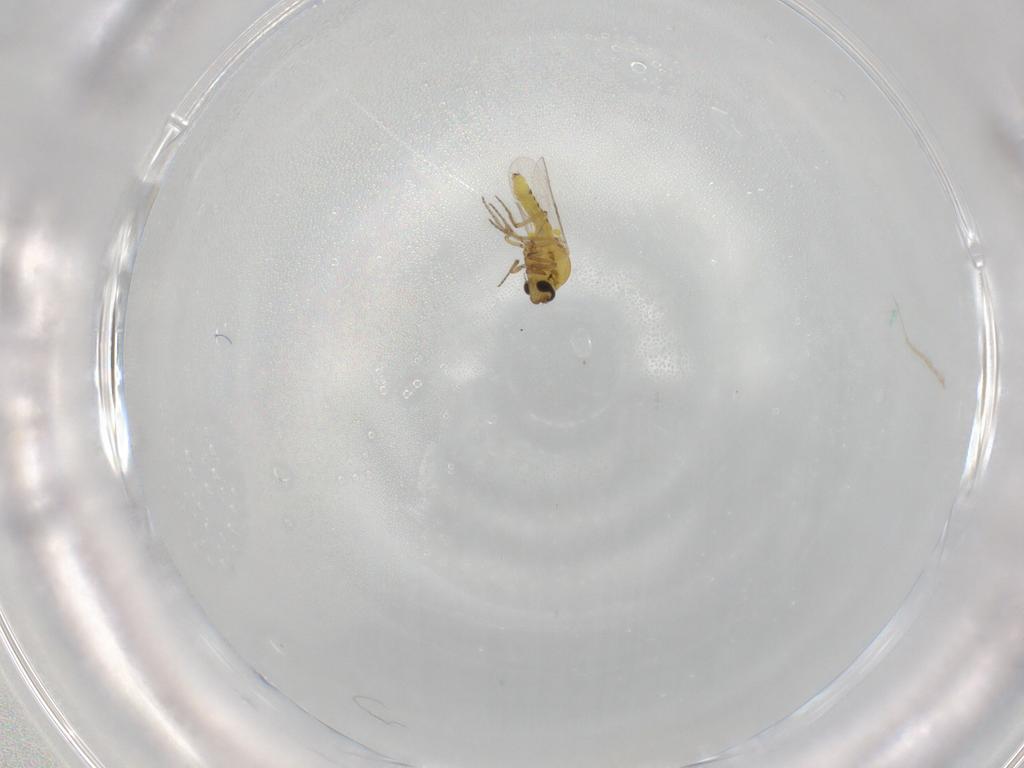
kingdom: Animalia
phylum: Arthropoda
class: Insecta
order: Diptera
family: Ceratopogonidae
